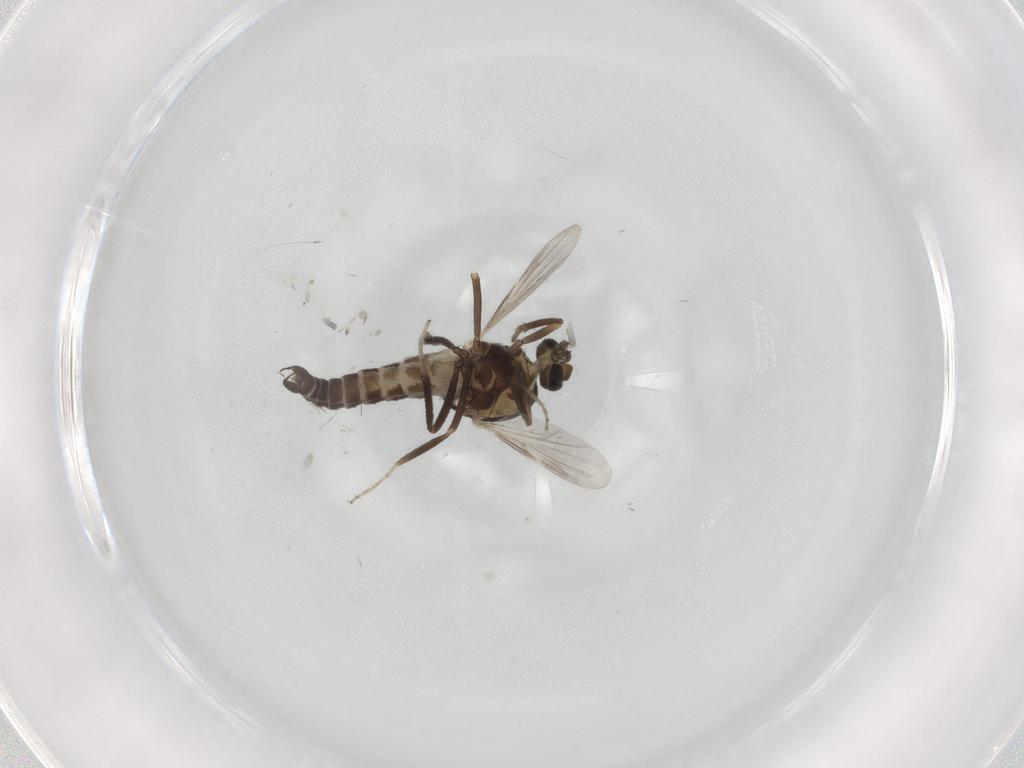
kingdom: Animalia
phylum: Arthropoda
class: Insecta
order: Diptera
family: Ceratopogonidae
